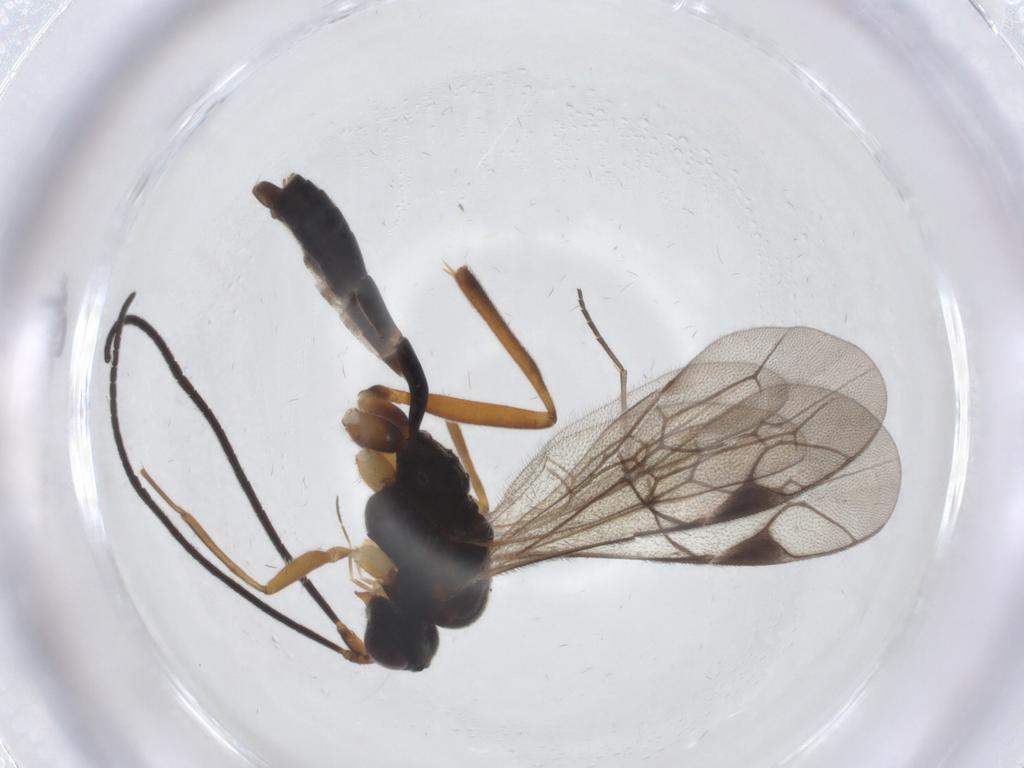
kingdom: Animalia
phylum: Arthropoda
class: Insecta
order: Hymenoptera
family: Ichneumonidae
